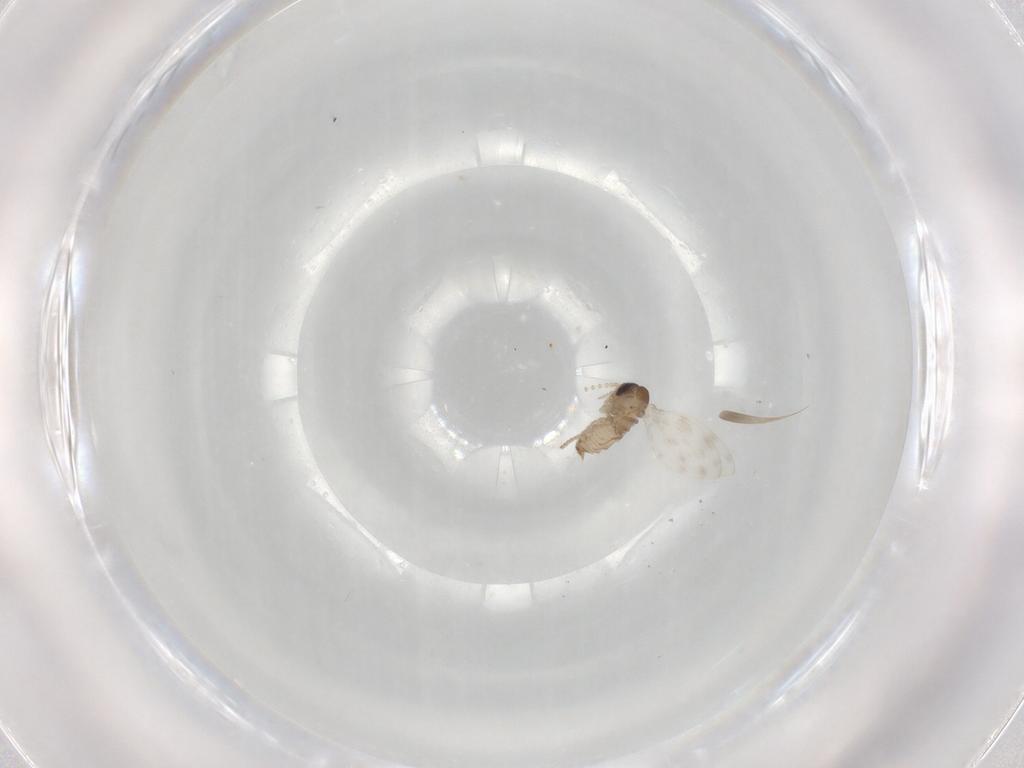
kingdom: Animalia
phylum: Arthropoda
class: Insecta
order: Diptera
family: Psychodidae
